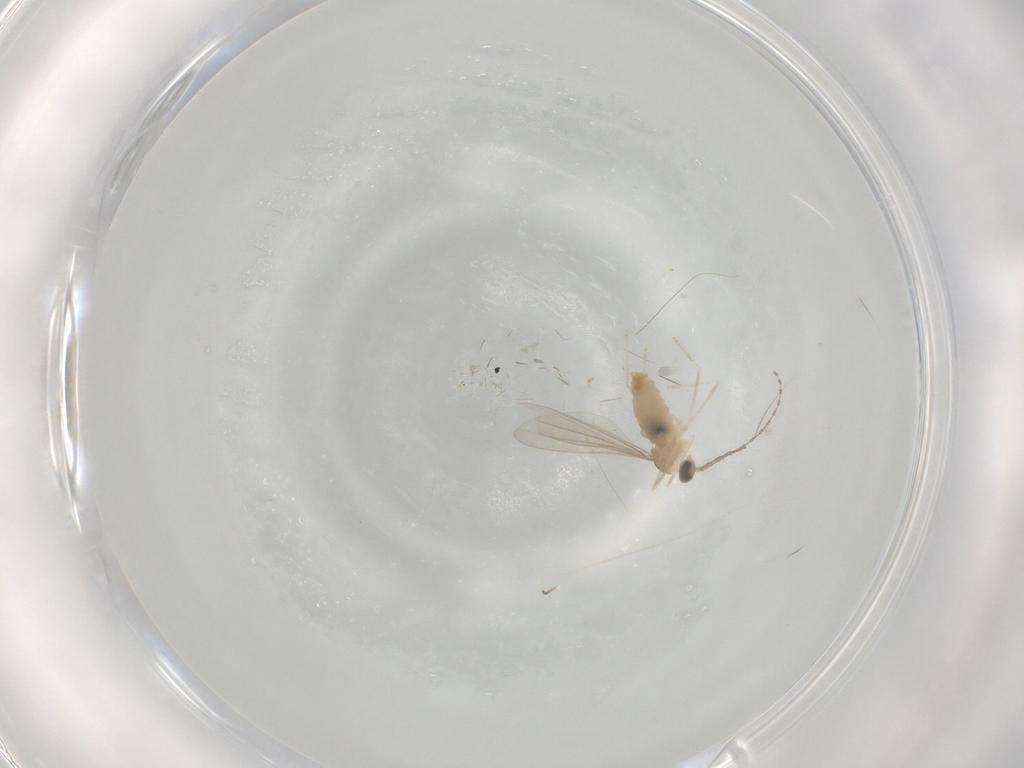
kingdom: Animalia
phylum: Arthropoda
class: Insecta
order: Diptera
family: Cecidomyiidae
